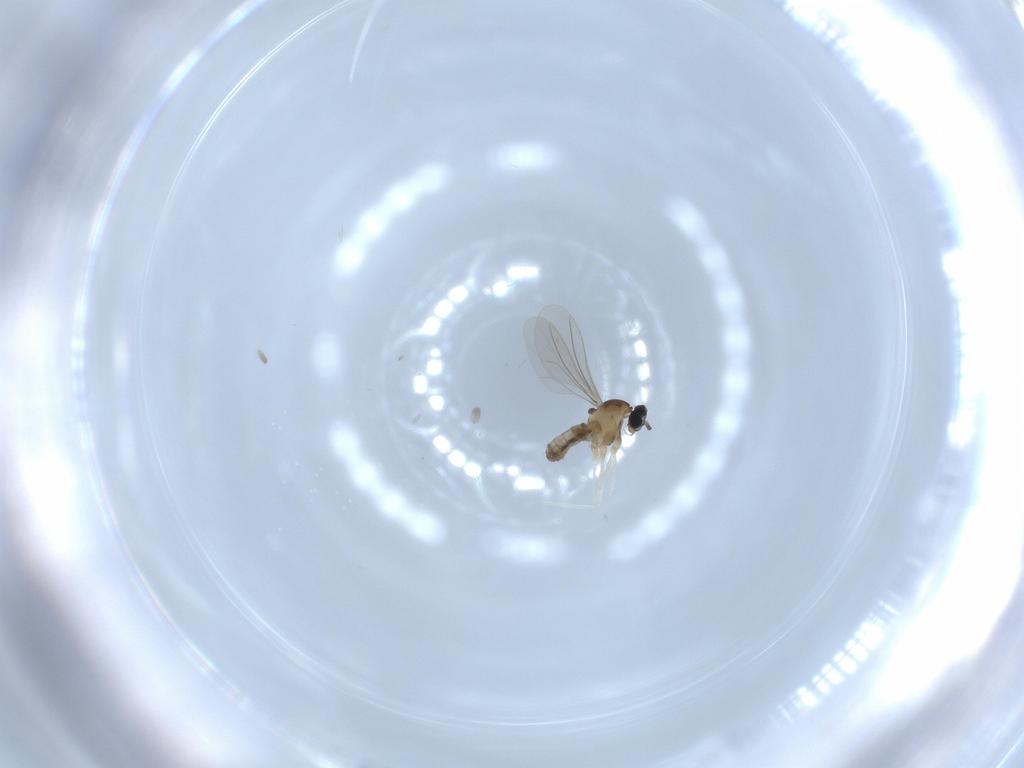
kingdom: Animalia
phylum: Arthropoda
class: Insecta
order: Diptera
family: Cecidomyiidae
